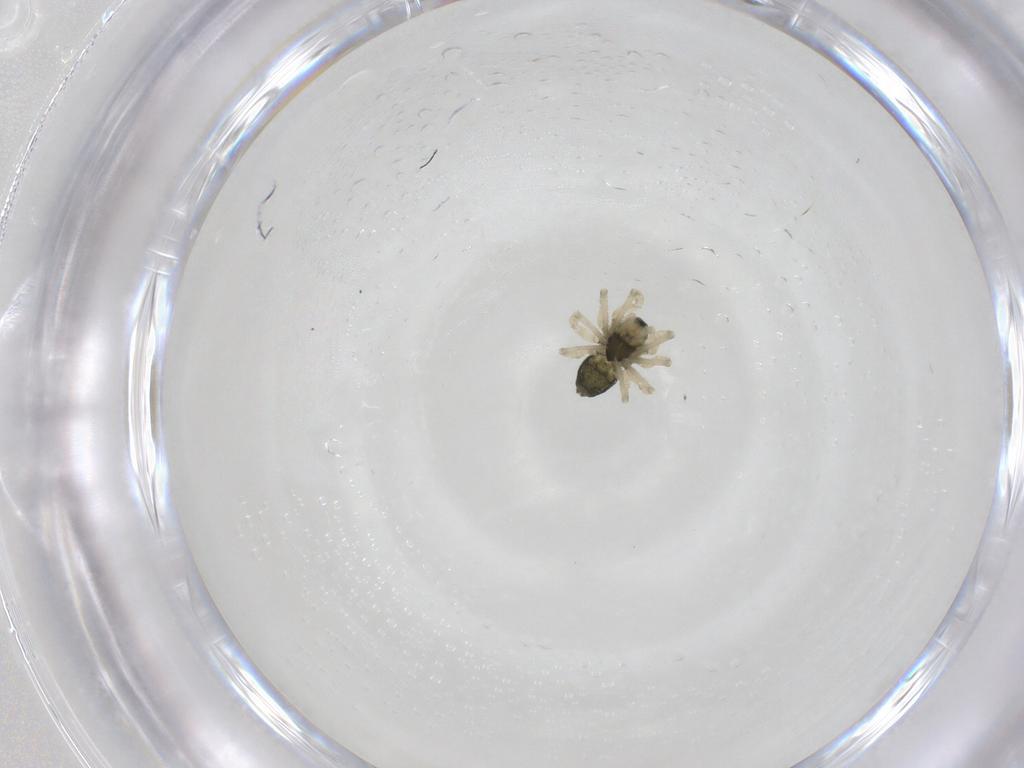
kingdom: Animalia
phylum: Arthropoda
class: Arachnida
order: Araneae
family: Linyphiidae
